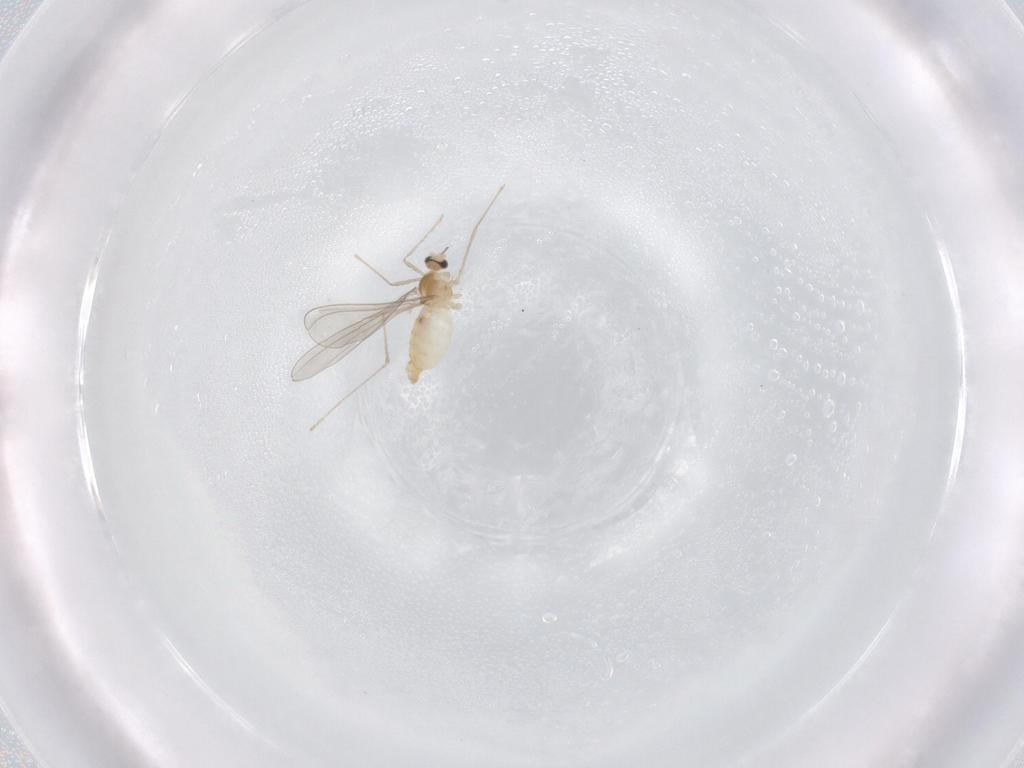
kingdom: Animalia
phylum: Arthropoda
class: Insecta
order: Diptera
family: Cecidomyiidae
